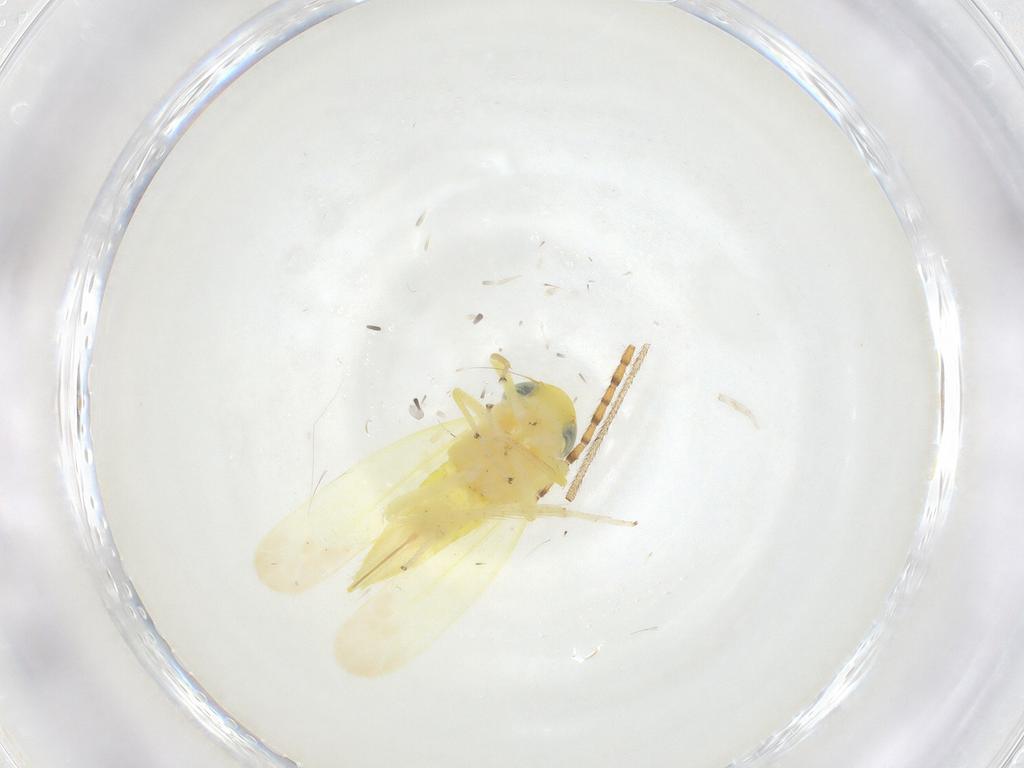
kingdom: Animalia
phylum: Arthropoda
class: Insecta
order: Hemiptera
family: Cicadellidae
